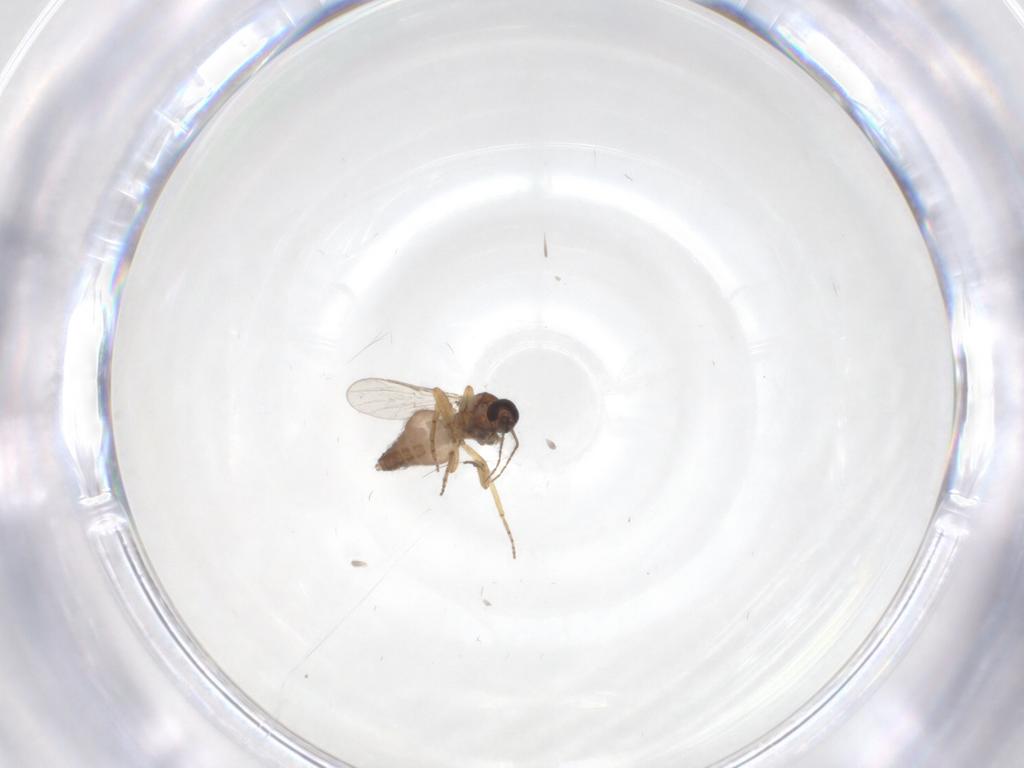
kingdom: Animalia
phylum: Arthropoda
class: Insecta
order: Diptera
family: Ceratopogonidae
